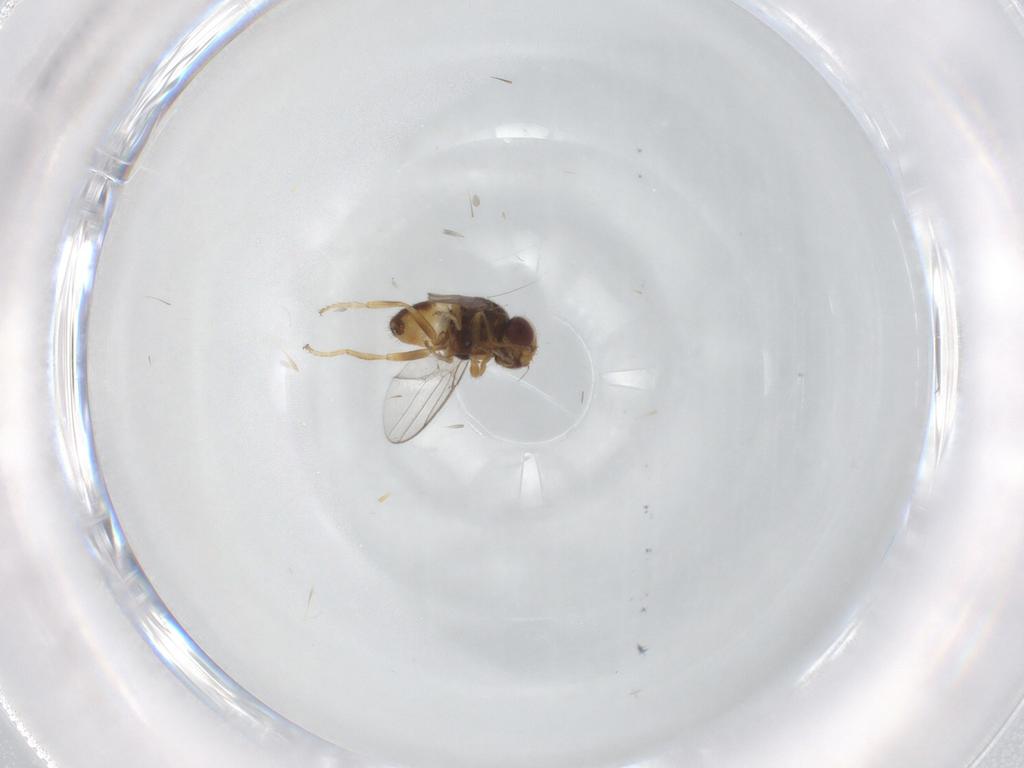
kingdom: Animalia
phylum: Arthropoda
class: Insecta
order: Diptera
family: Chloropidae
